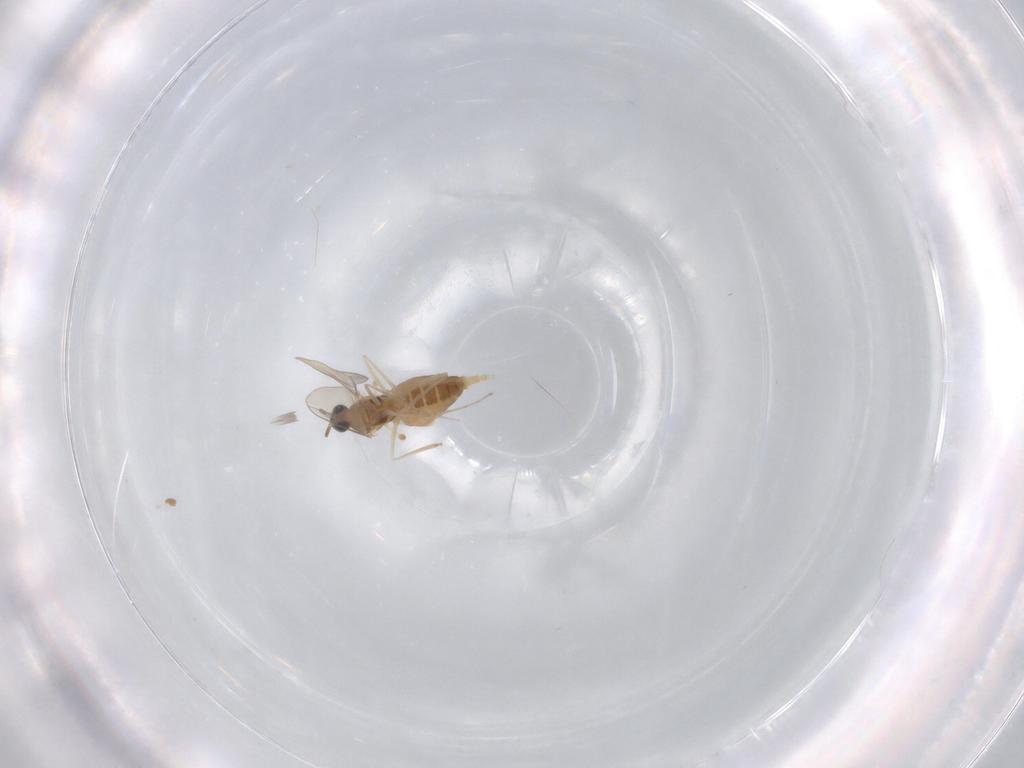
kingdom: Animalia
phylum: Arthropoda
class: Insecta
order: Diptera
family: Cecidomyiidae
